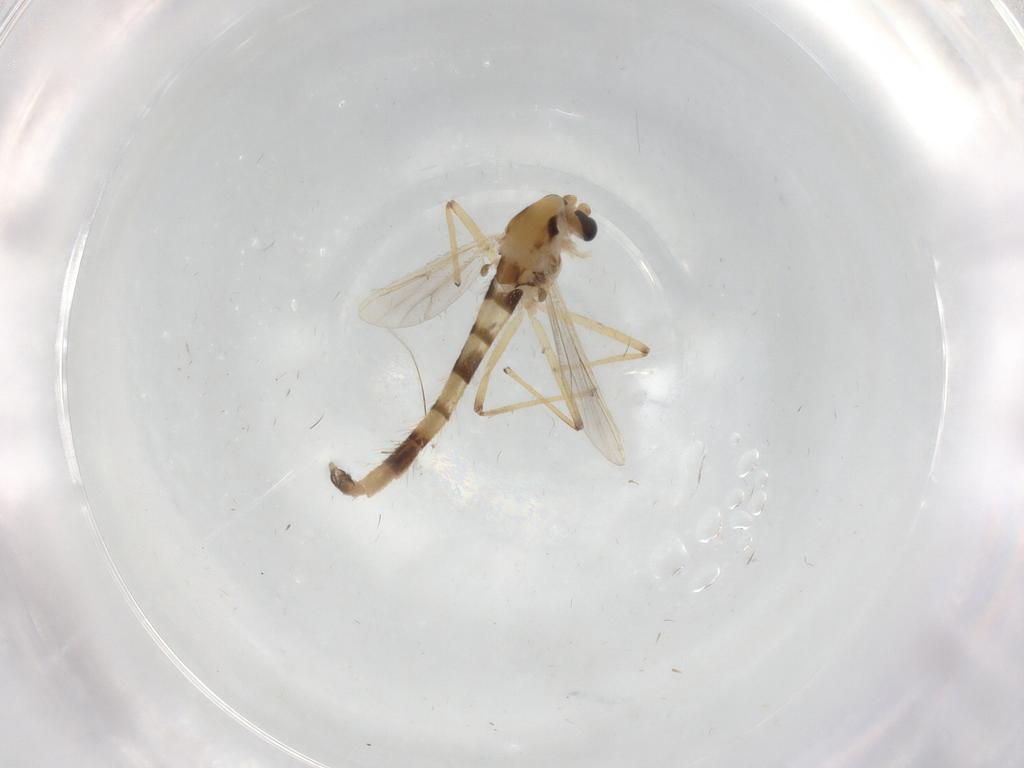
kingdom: Animalia
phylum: Arthropoda
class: Insecta
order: Diptera
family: Chironomidae
